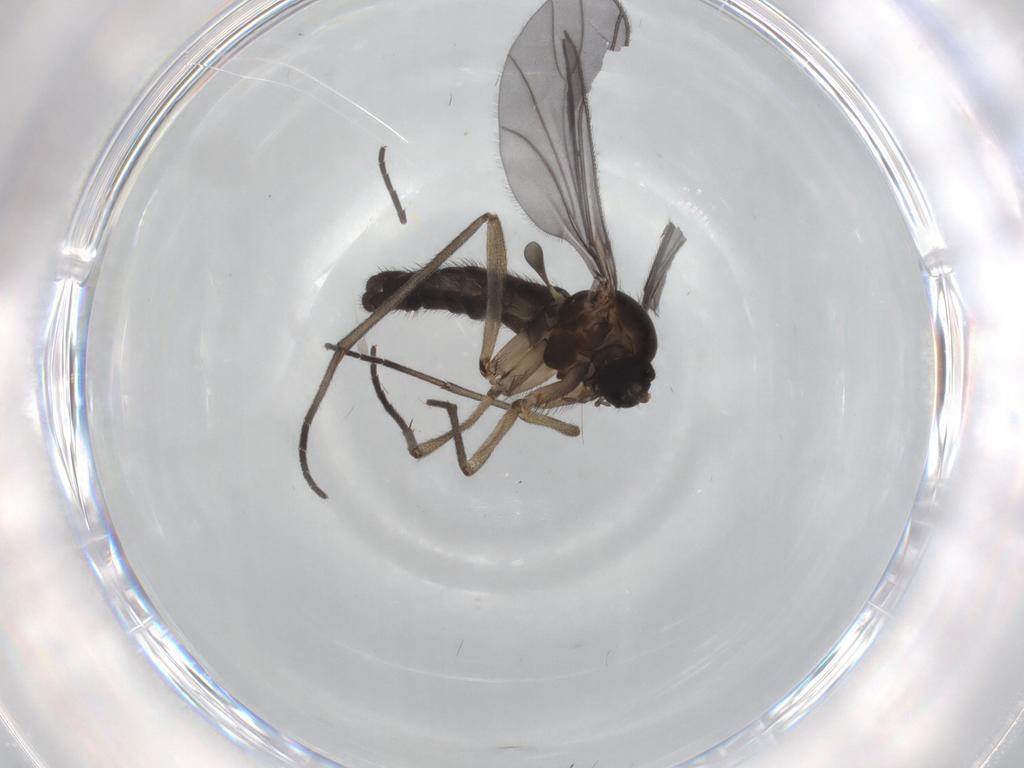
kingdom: Animalia
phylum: Arthropoda
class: Insecta
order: Diptera
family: Sciaridae
